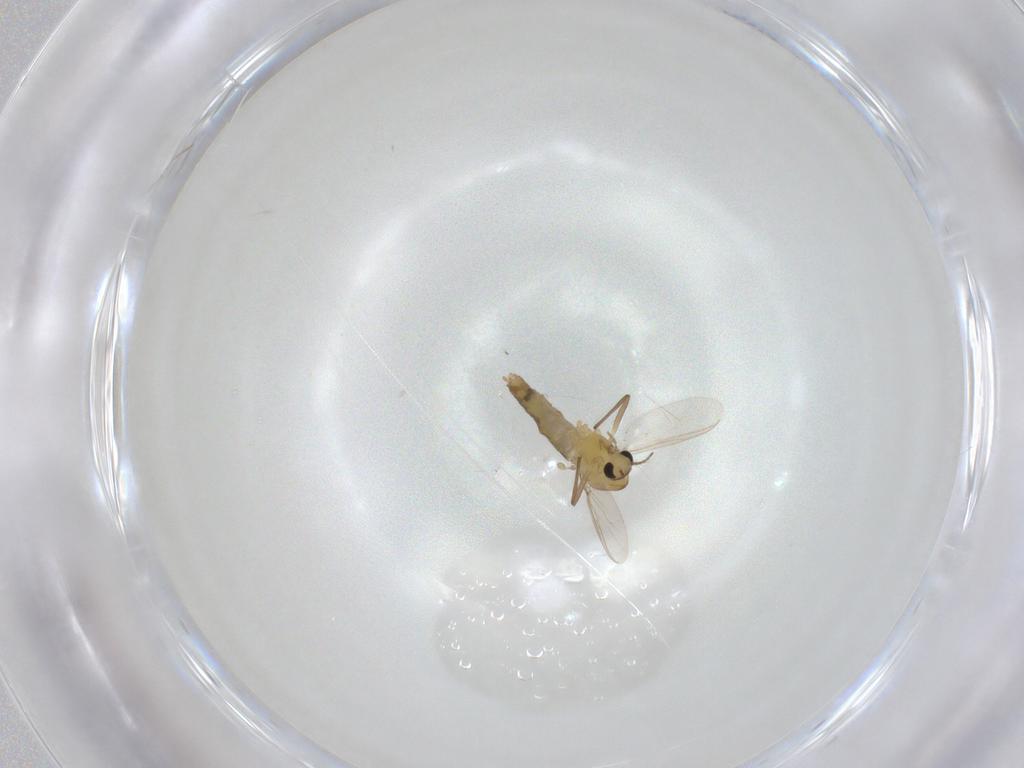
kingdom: Animalia
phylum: Arthropoda
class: Insecta
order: Diptera
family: Chironomidae
